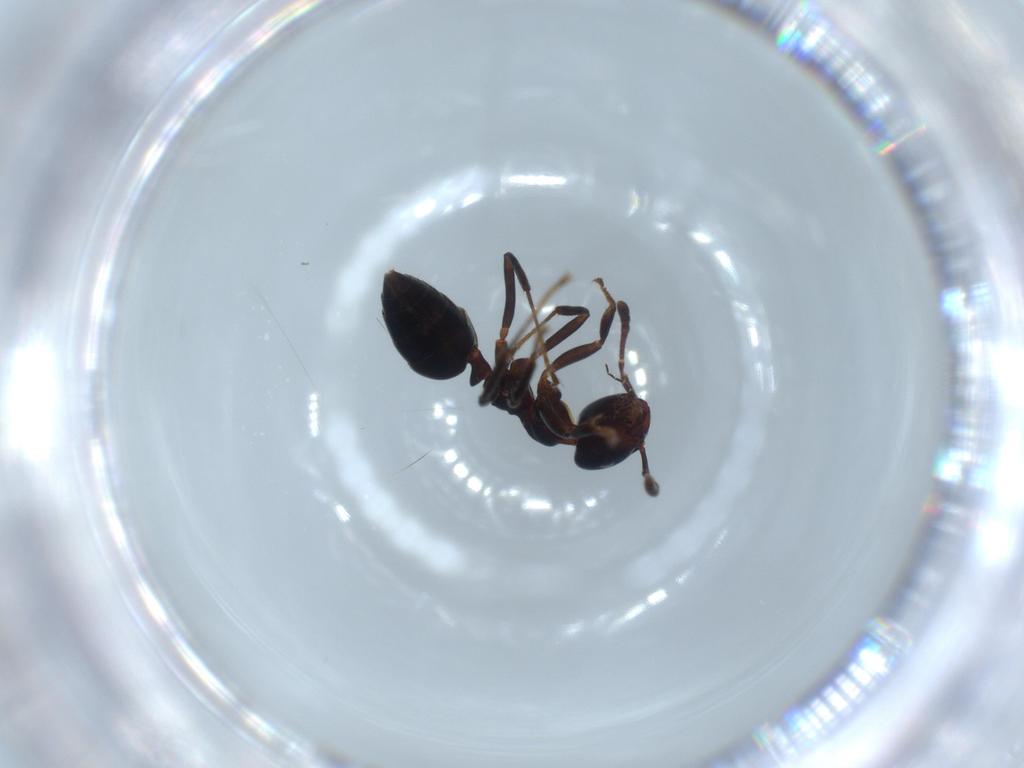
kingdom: Animalia
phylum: Arthropoda
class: Insecta
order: Hymenoptera
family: Formicidae
